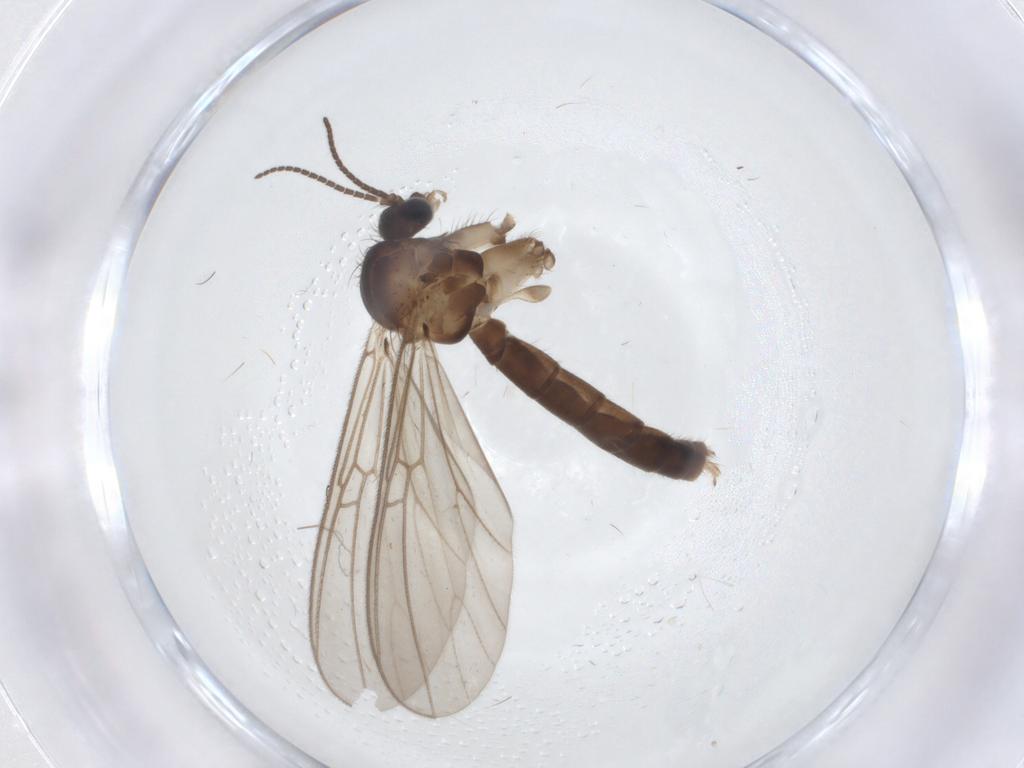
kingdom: Animalia
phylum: Arthropoda
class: Insecta
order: Diptera
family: Mycetophilidae
